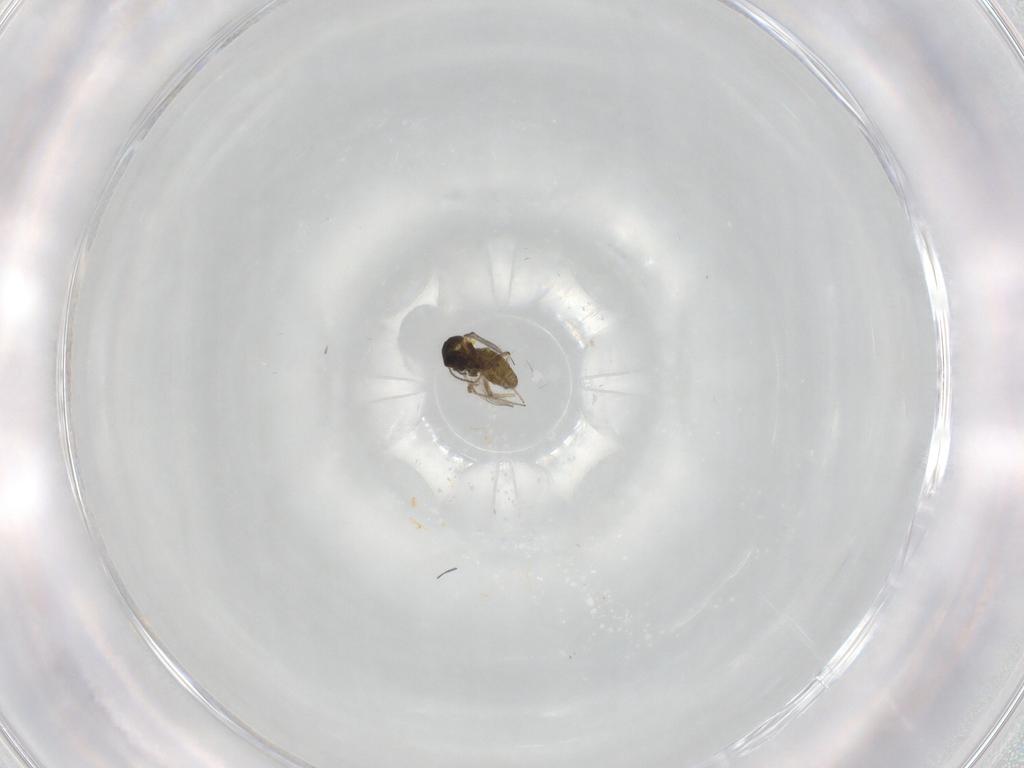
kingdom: Animalia
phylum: Arthropoda
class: Insecta
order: Diptera
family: Ceratopogonidae
